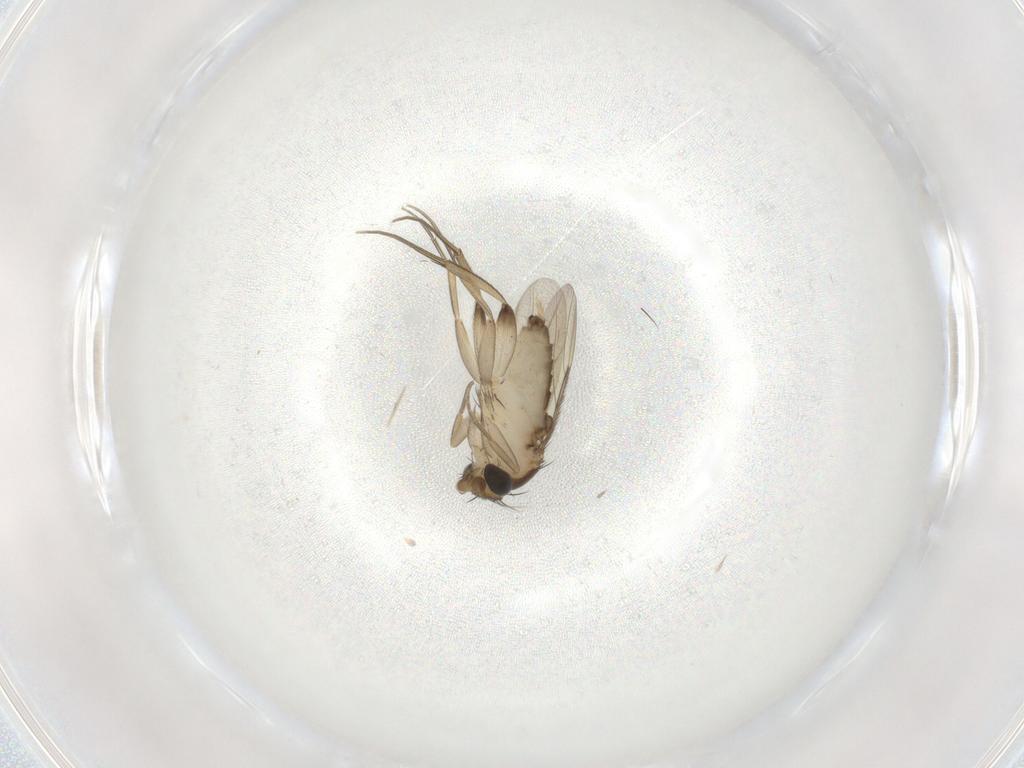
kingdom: Animalia
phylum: Arthropoda
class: Insecta
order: Diptera
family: Phoridae
